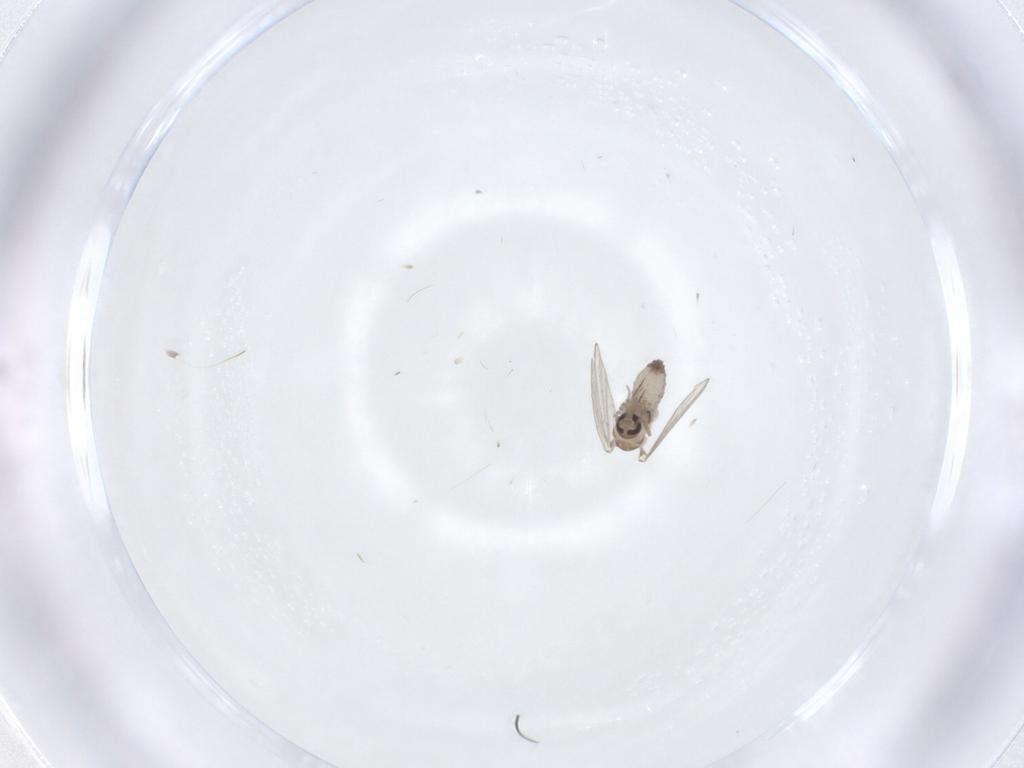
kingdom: Animalia
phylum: Arthropoda
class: Insecta
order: Diptera
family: Psychodidae
